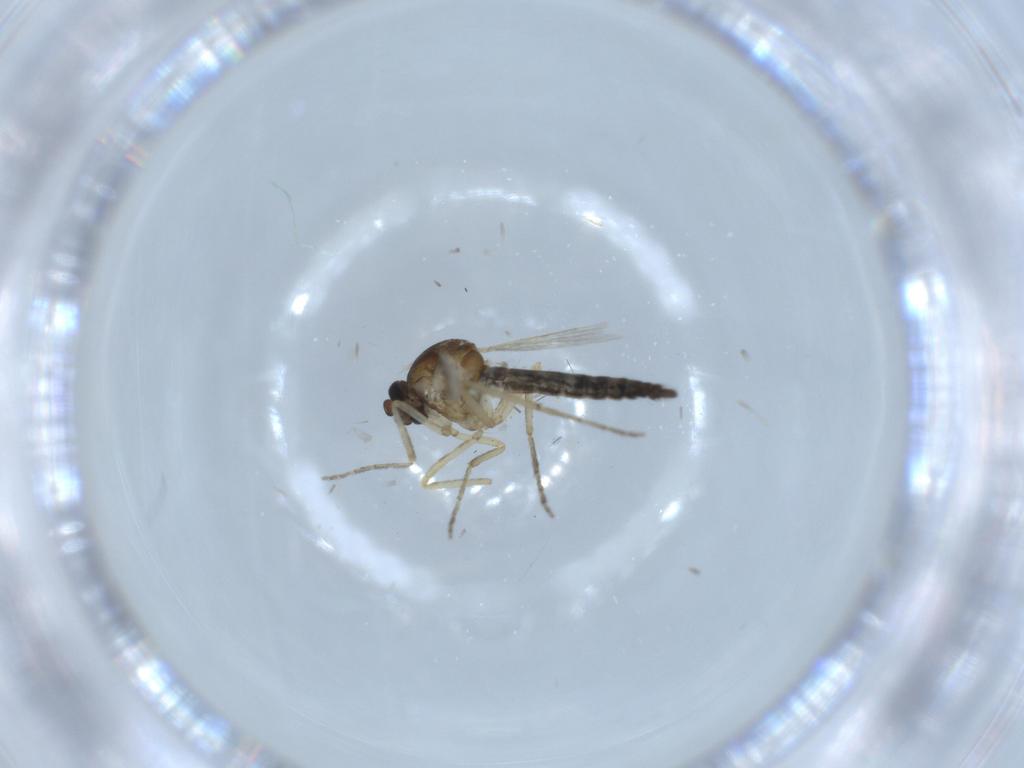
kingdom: Animalia
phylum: Arthropoda
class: Insecta
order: Diptera
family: Ceratopogonidae
